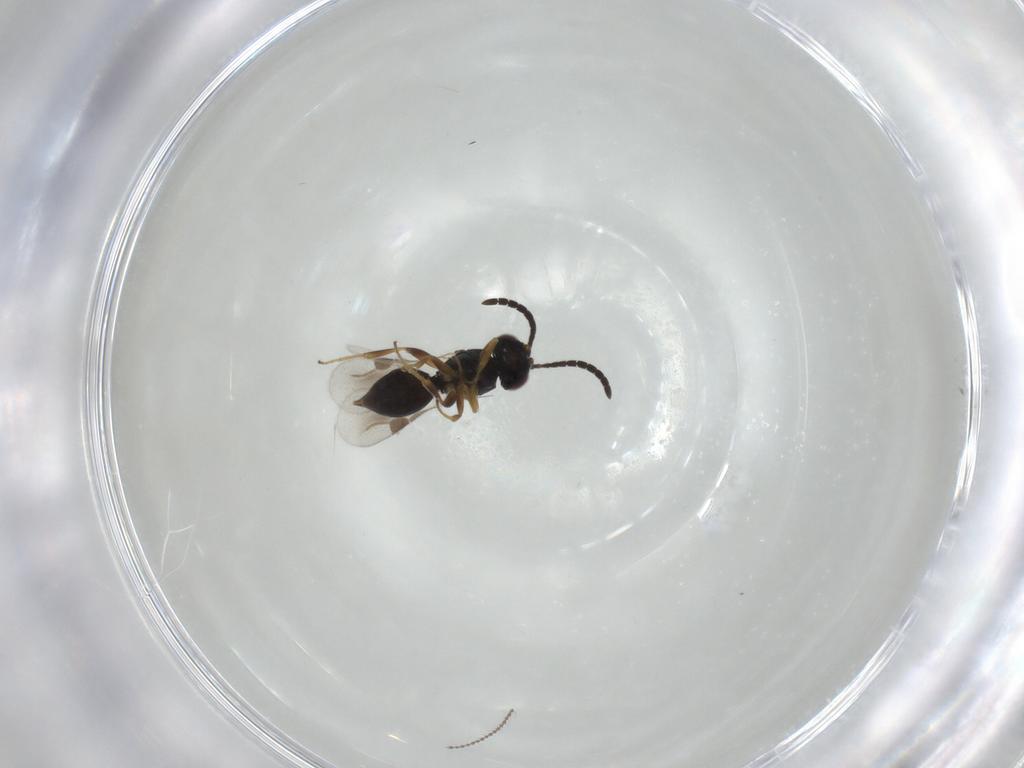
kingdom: Animalia
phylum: Arthropoda
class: Insecta
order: Hymenoptera
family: Trichogrammatidae
